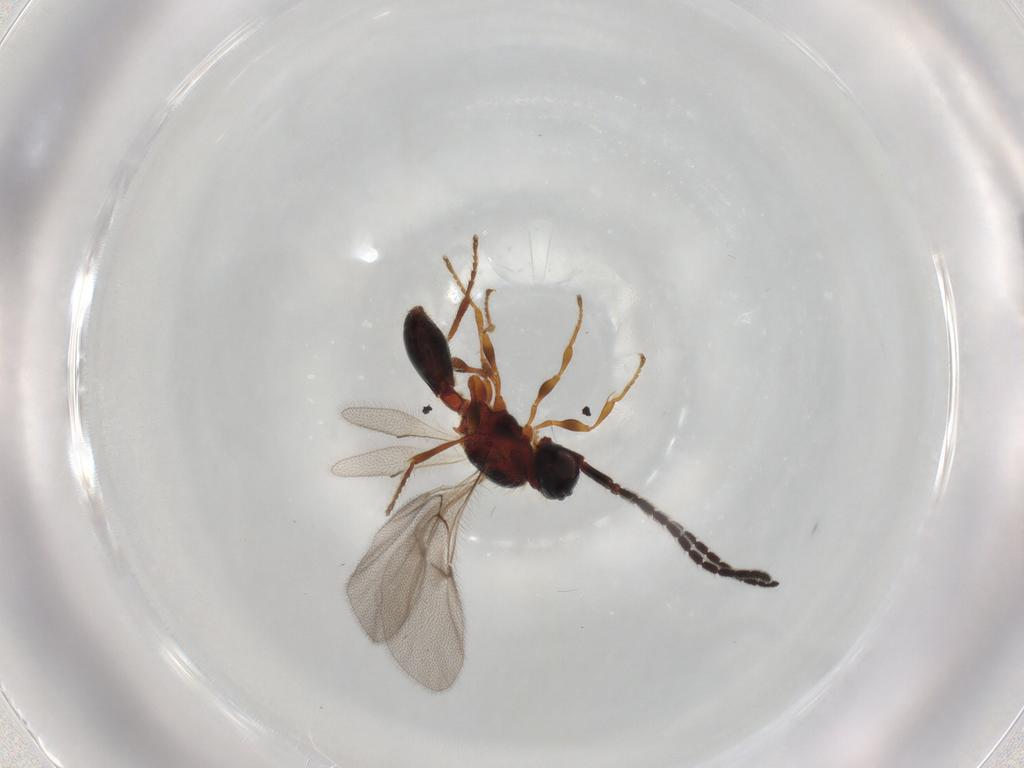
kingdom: Animalia
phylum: Arthropoda
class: Insecta
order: Hymenoptera
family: Diapriidae
